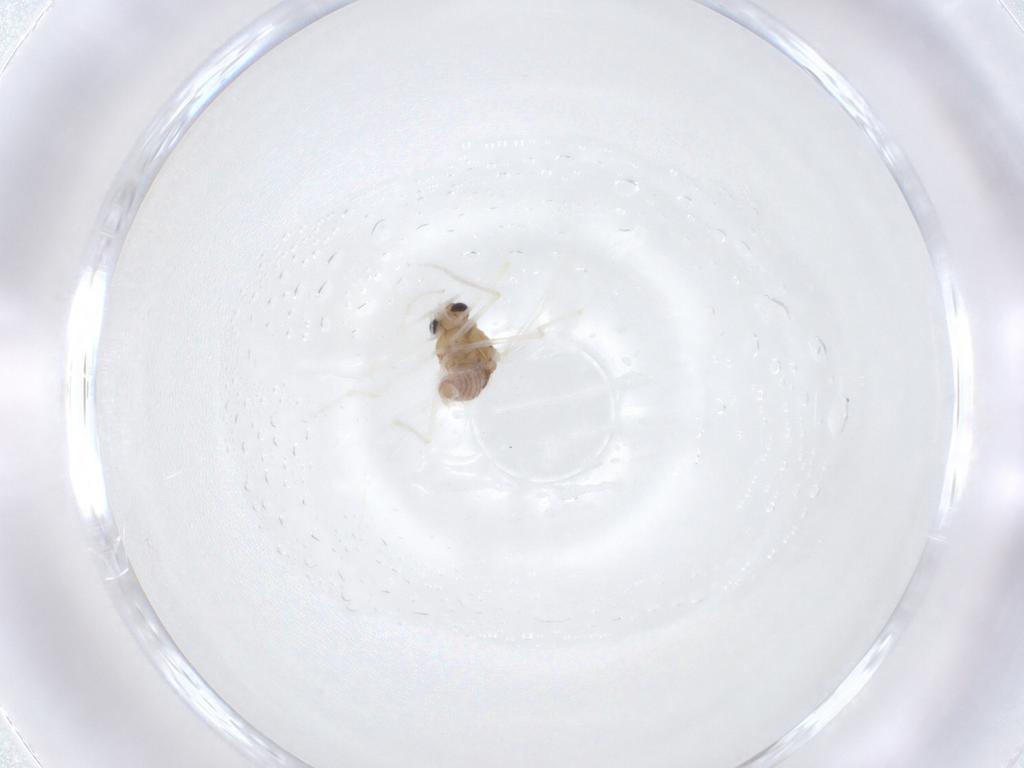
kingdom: Animalia
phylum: Arthropoda
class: Insecta
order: Diptera
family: Chironomidae
